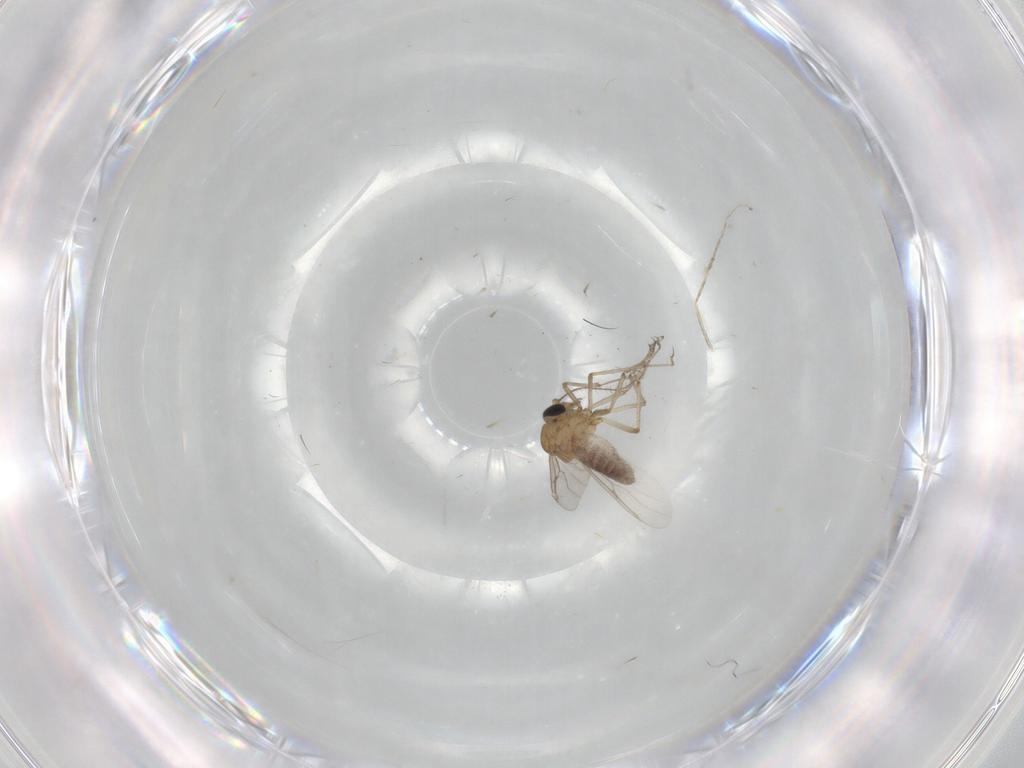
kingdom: Animalia
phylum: Arthropoda
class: Insecta
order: Diptera
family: Ceratopogonidae
